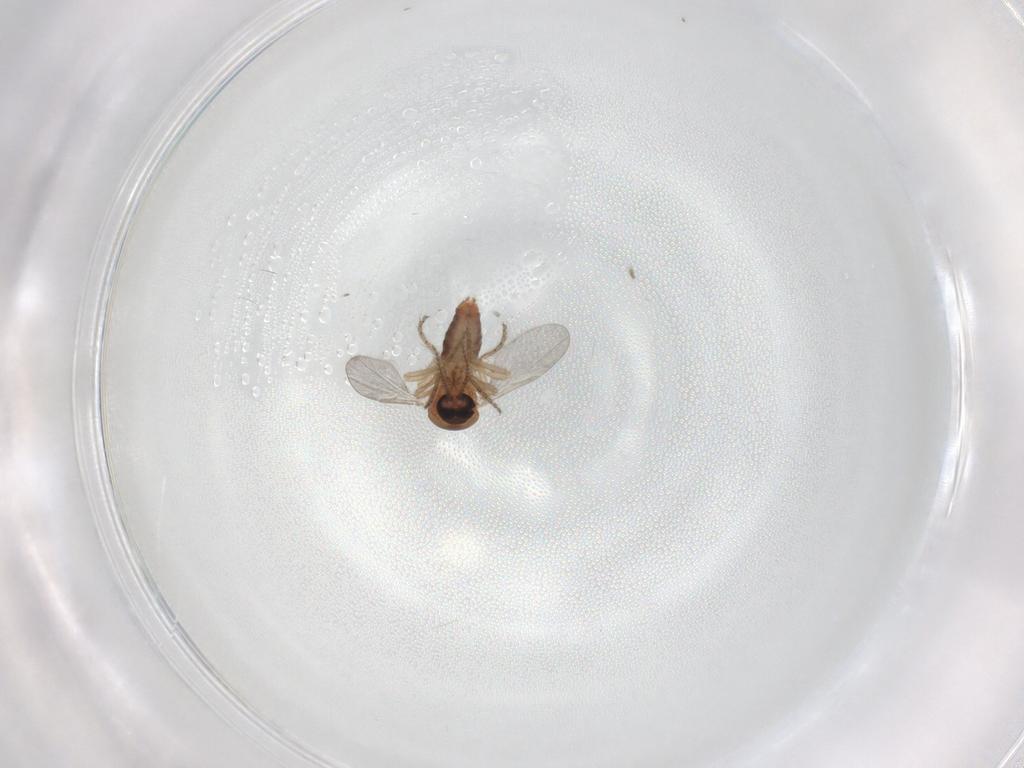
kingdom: Animalia
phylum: Arthropoda
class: Insecta
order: Diptera
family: Ceratopogonidae
